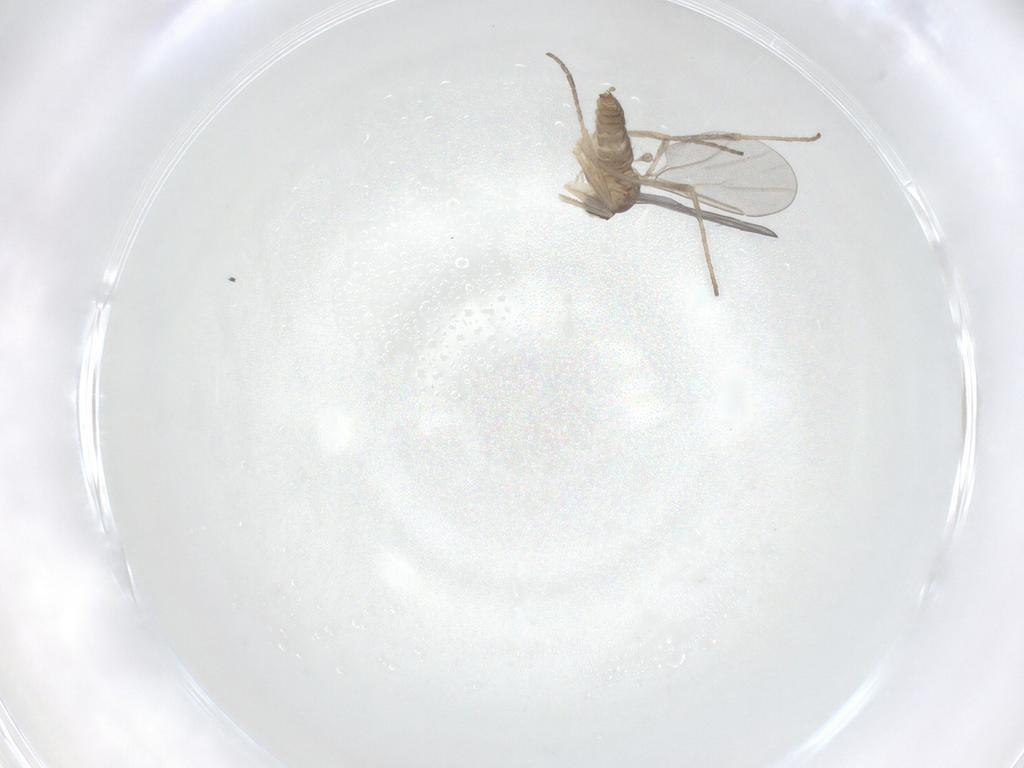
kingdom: Animalia
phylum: Arthropoda
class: Insecta
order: Diptera
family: Cecidomyiidae
